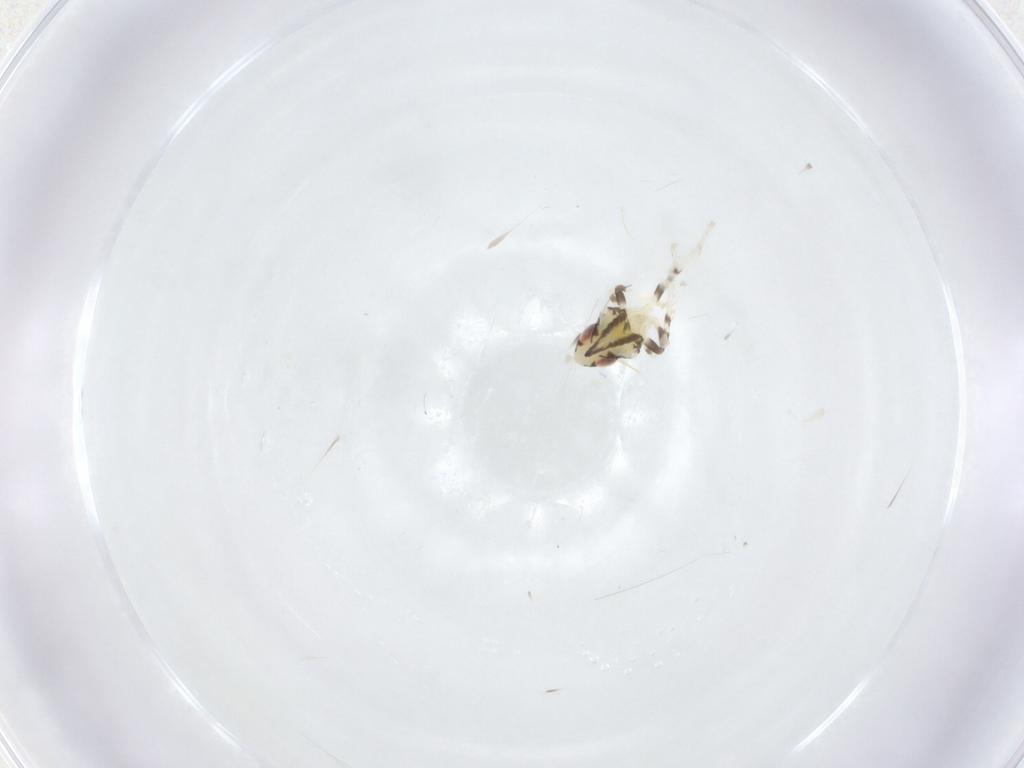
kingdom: Animalia
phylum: Arthropoda
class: Insecta
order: Hemiptera
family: Cicadellidae
